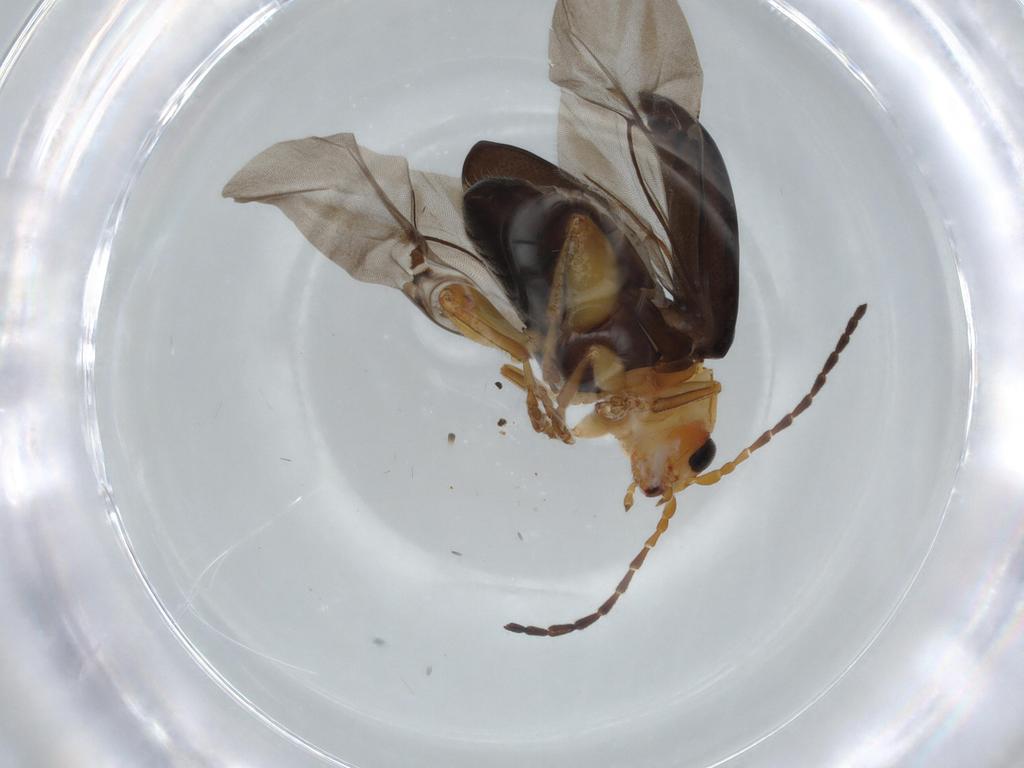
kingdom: Animalia
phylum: Arthropoda
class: Insecta
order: Coleoptera
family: Chrysomelidae
